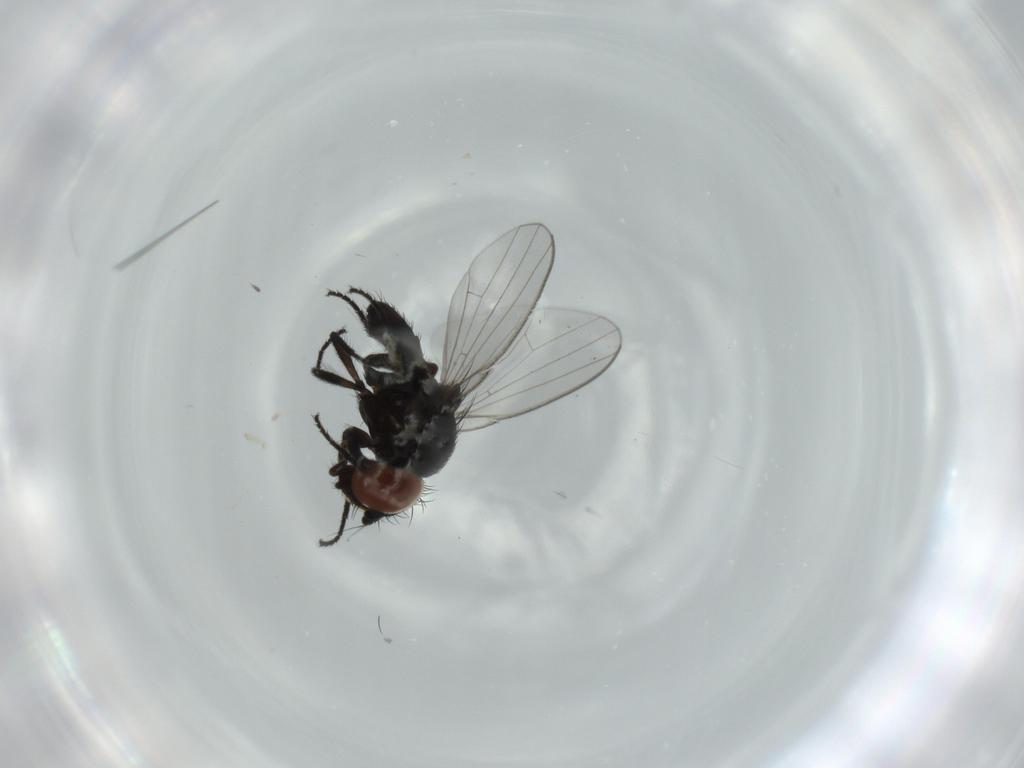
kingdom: Animalia
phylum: Arthropoda
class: Insecta
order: Diptera
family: Milichiidae
